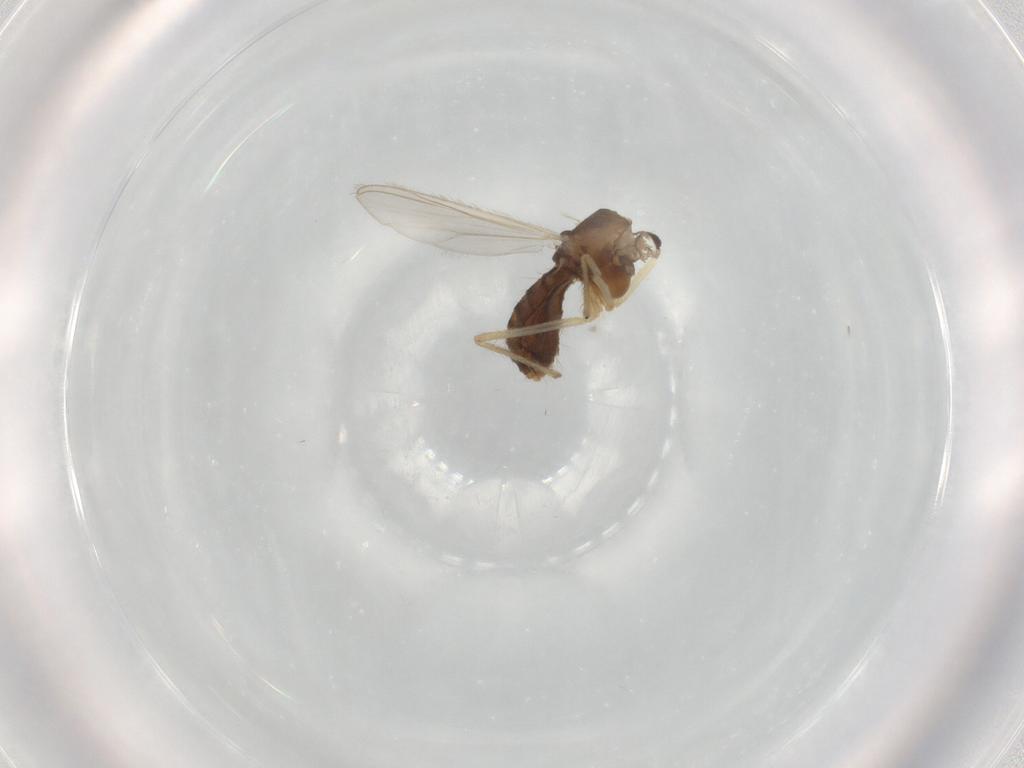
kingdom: Animalia
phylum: Arthropoda
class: Insecta
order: Diptera
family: Chironomidae
